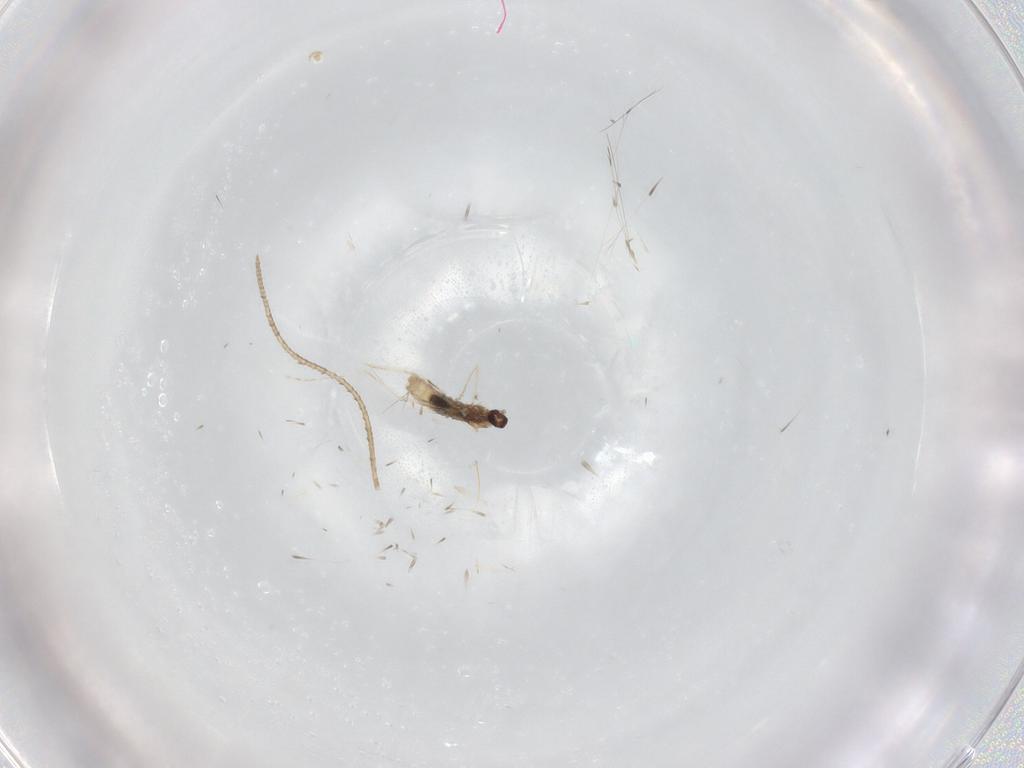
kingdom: Animalia
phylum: Arthropoda
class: Insecta
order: Diptera
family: Cecidomyiidae
